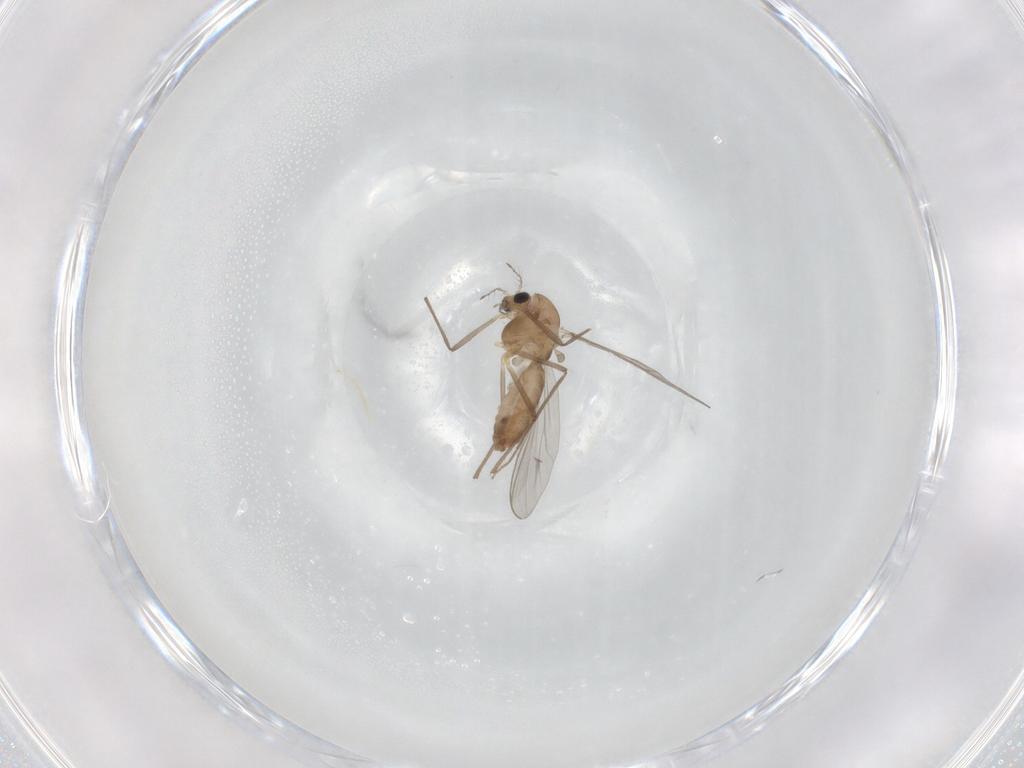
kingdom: Animalia
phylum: Arthropoda
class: Insecta
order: Diptera
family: Chironomidae
